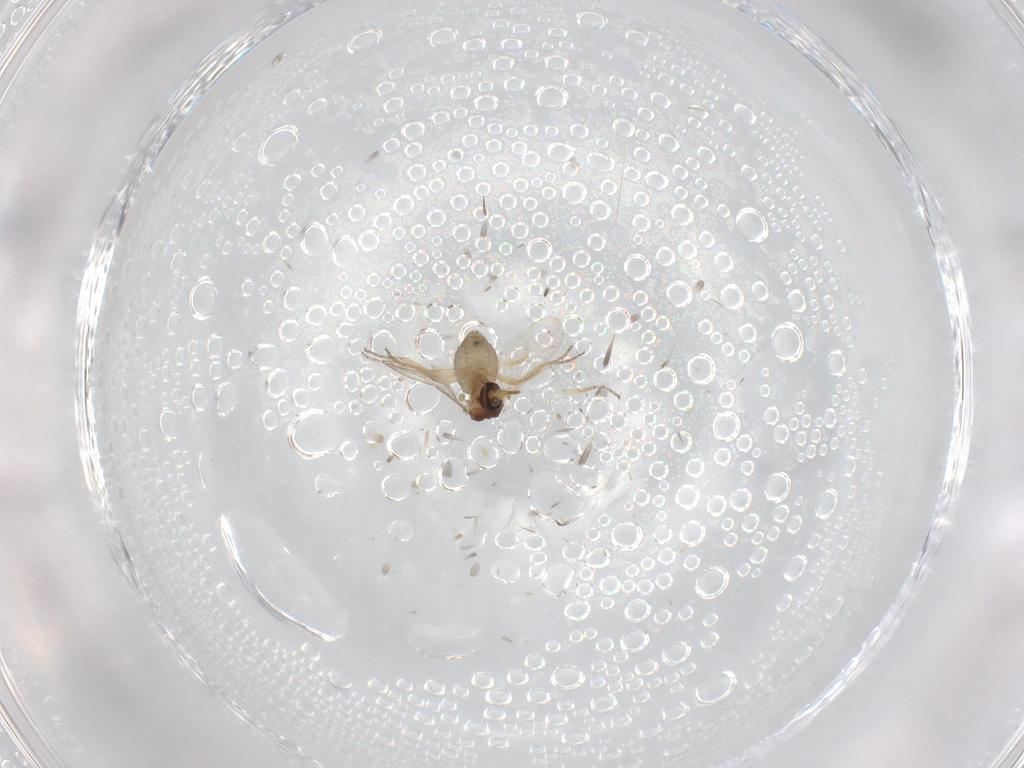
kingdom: Animalia
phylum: Arthropoda
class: Insecta
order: Diptera
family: Ceratopogonidae
